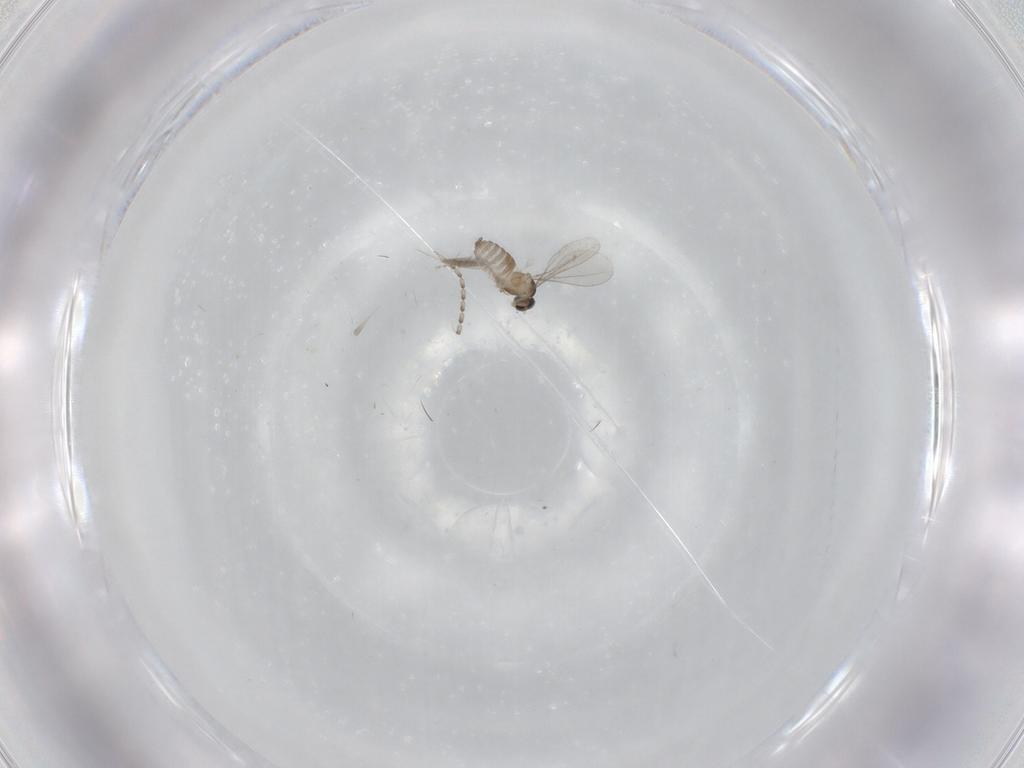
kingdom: Animalia
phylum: Arthropoda
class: Insecta
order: Diptera
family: Cecidomyiidae
